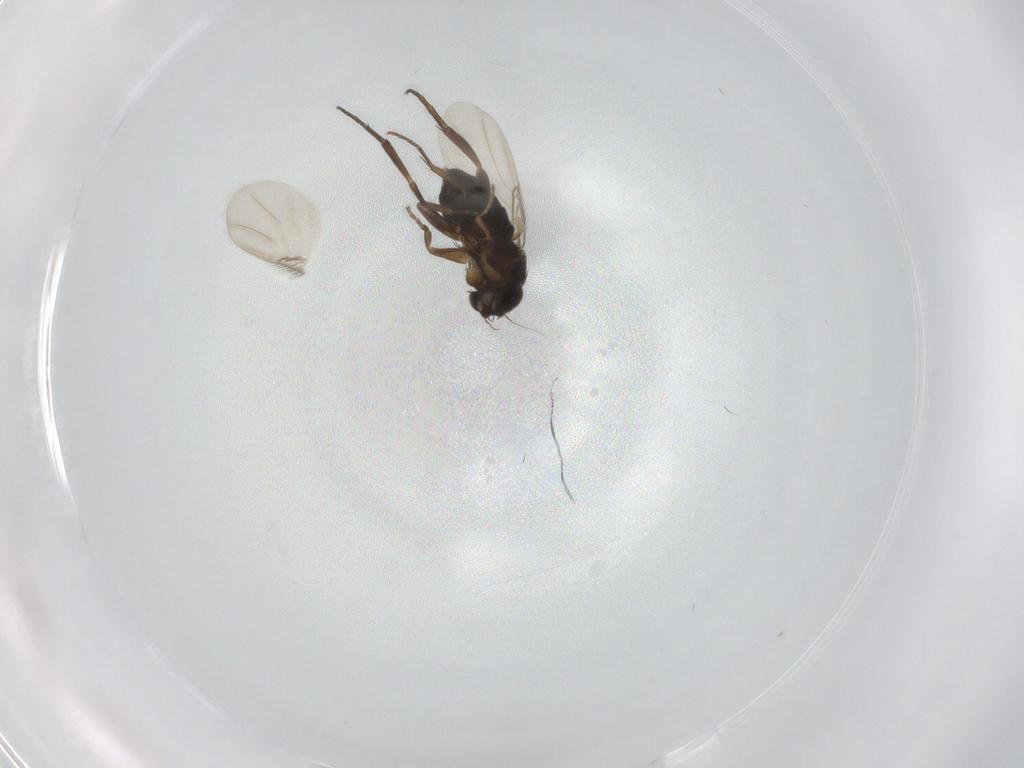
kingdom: Animalia
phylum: Arthropoda
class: Insecta
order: Diptera
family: Phoridae
